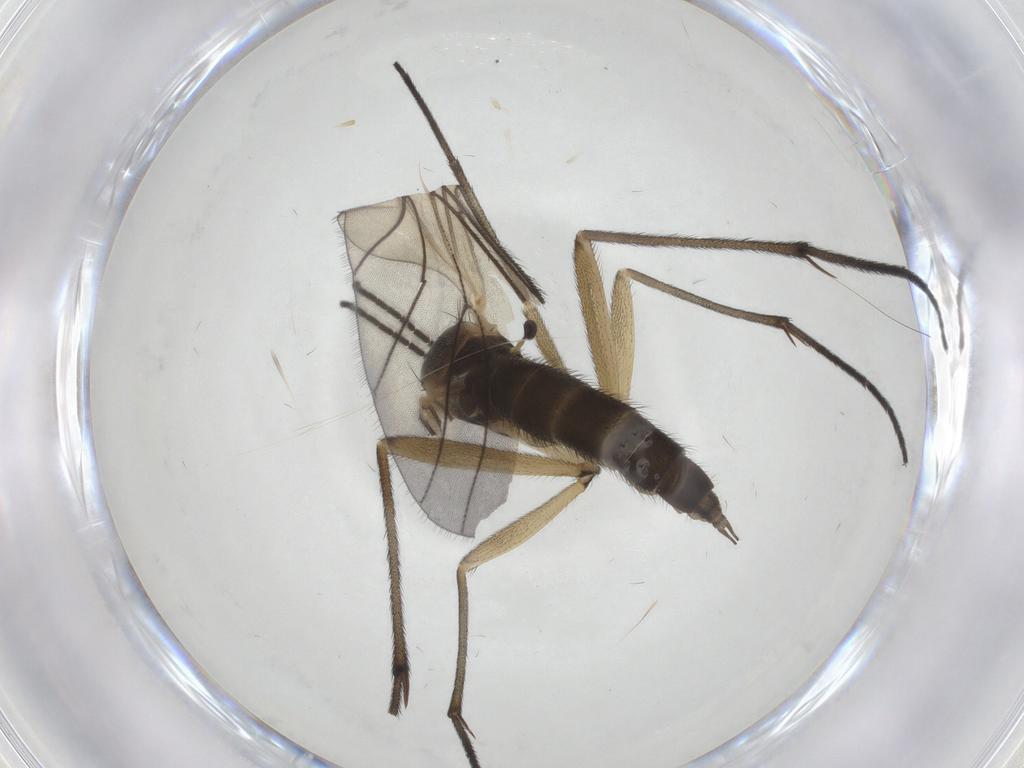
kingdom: Animalia
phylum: Arthropoda
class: Insecta
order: Diptera
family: Sciaridae
